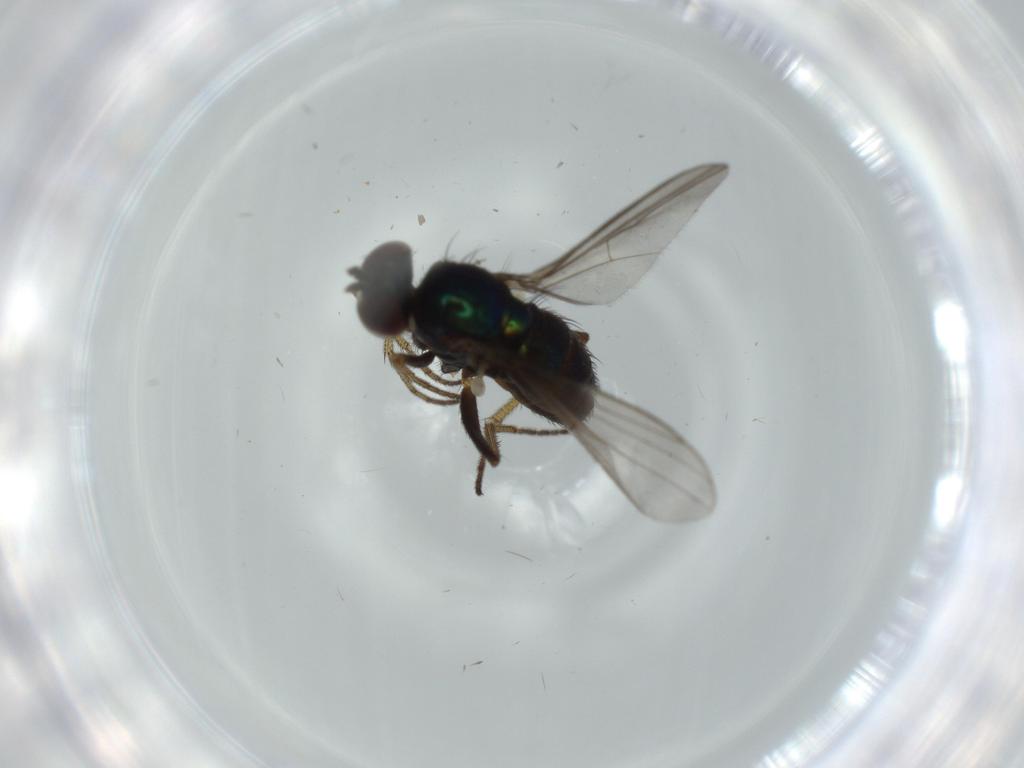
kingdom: Animalia
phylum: Arthropoda
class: Insecta
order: Diptera
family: Dolichopodidae
